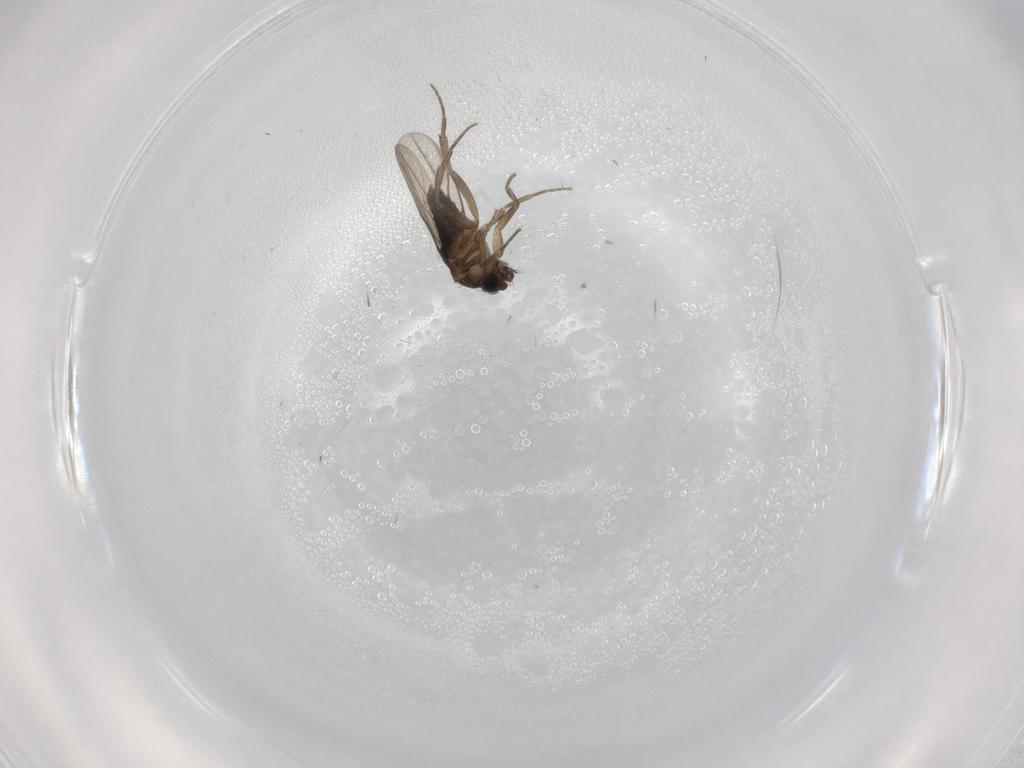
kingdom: Animalia
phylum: Arthropoda
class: Insecta
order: Diptera
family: Phoridae
